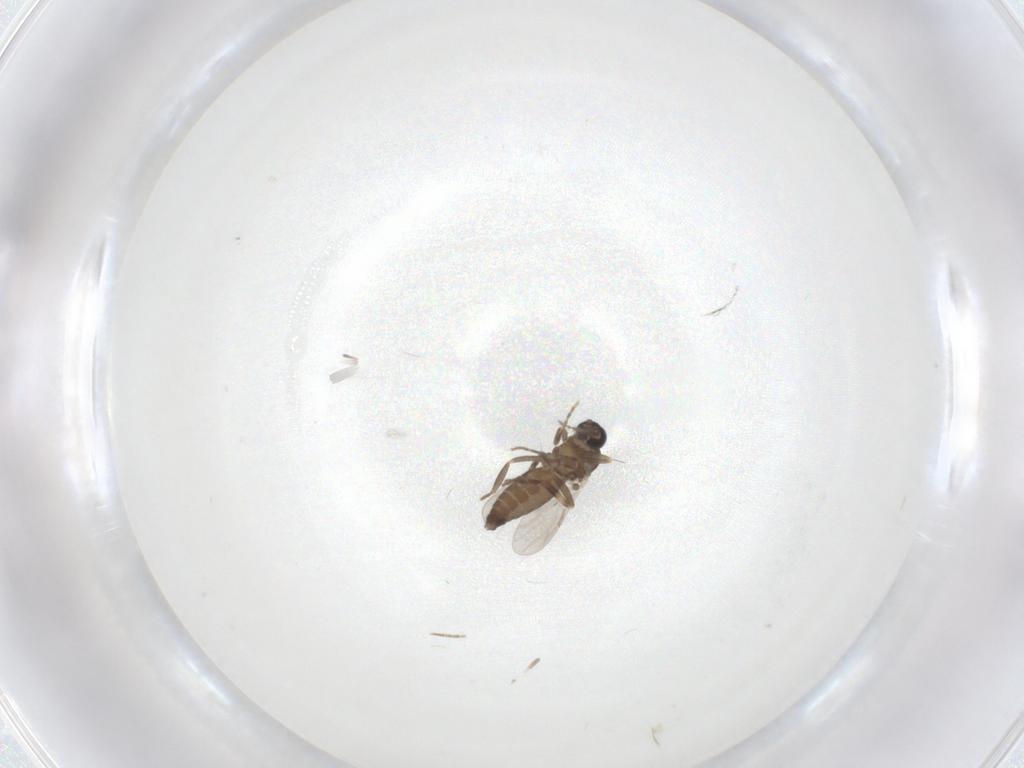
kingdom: Animalia
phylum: Arthropoda
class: Insecta
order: Diptera
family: Ceratopogonidae
